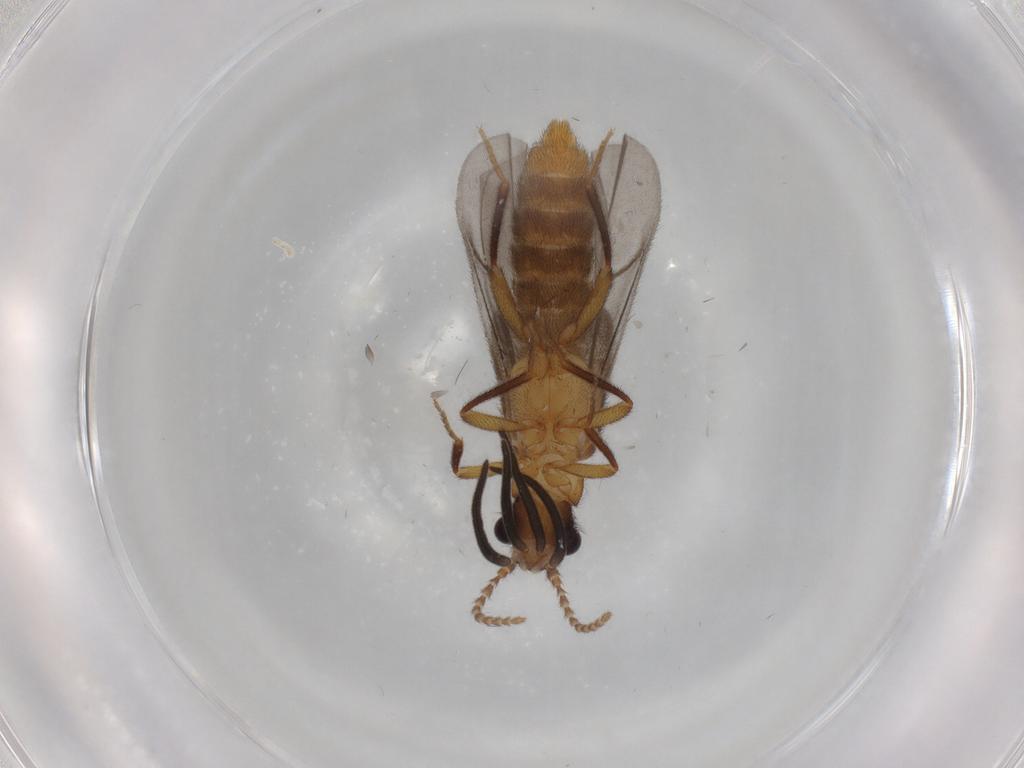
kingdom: Animalia
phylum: Arthropoda
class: Insecta
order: Coleoptera
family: Omethidae
